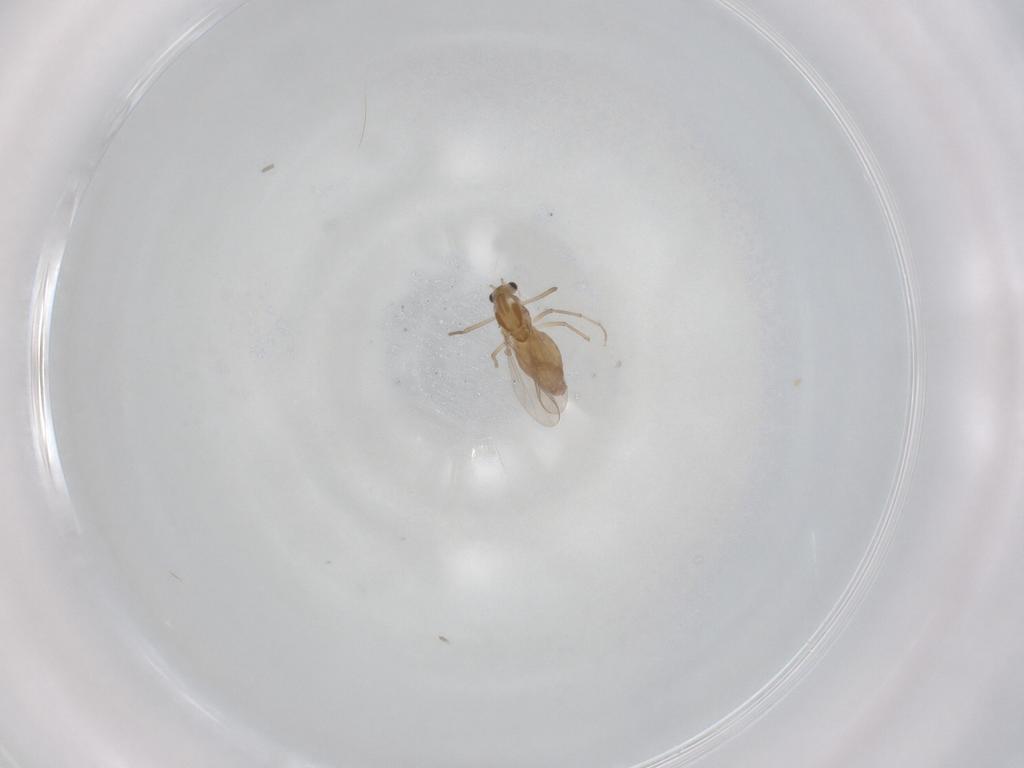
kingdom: Animalia
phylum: Arthropoda
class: Insecta
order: Diptera
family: Chironomidae
